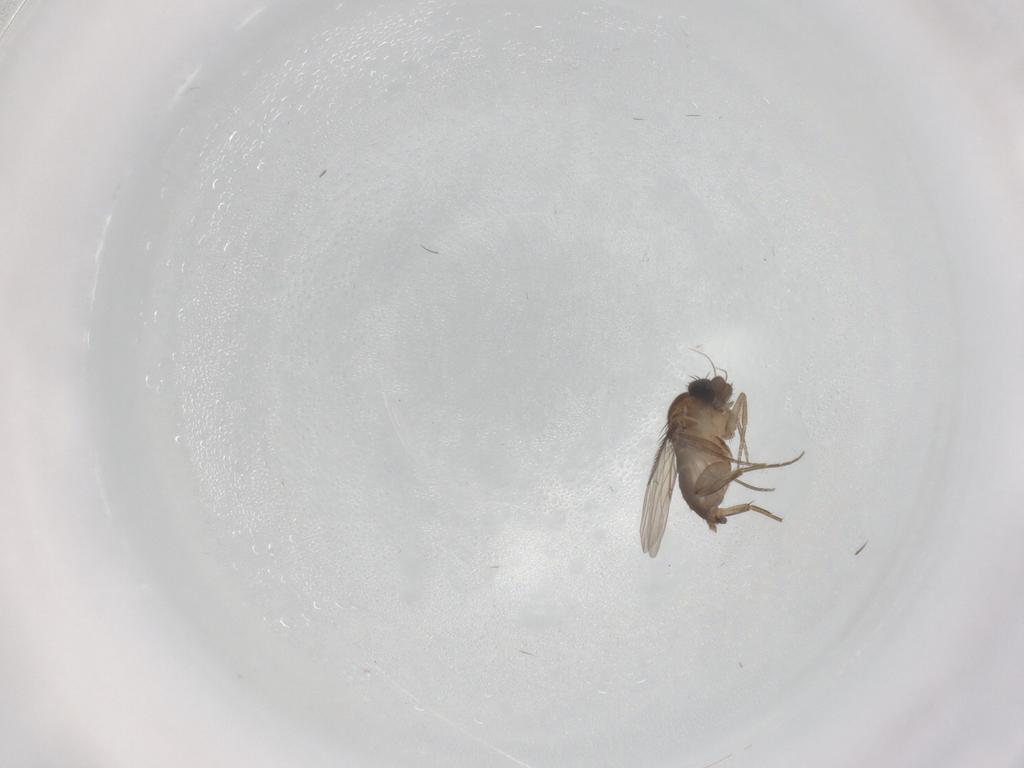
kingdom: Animalia
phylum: Arthropoda
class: Insecta
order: Diptera
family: Phoridae
